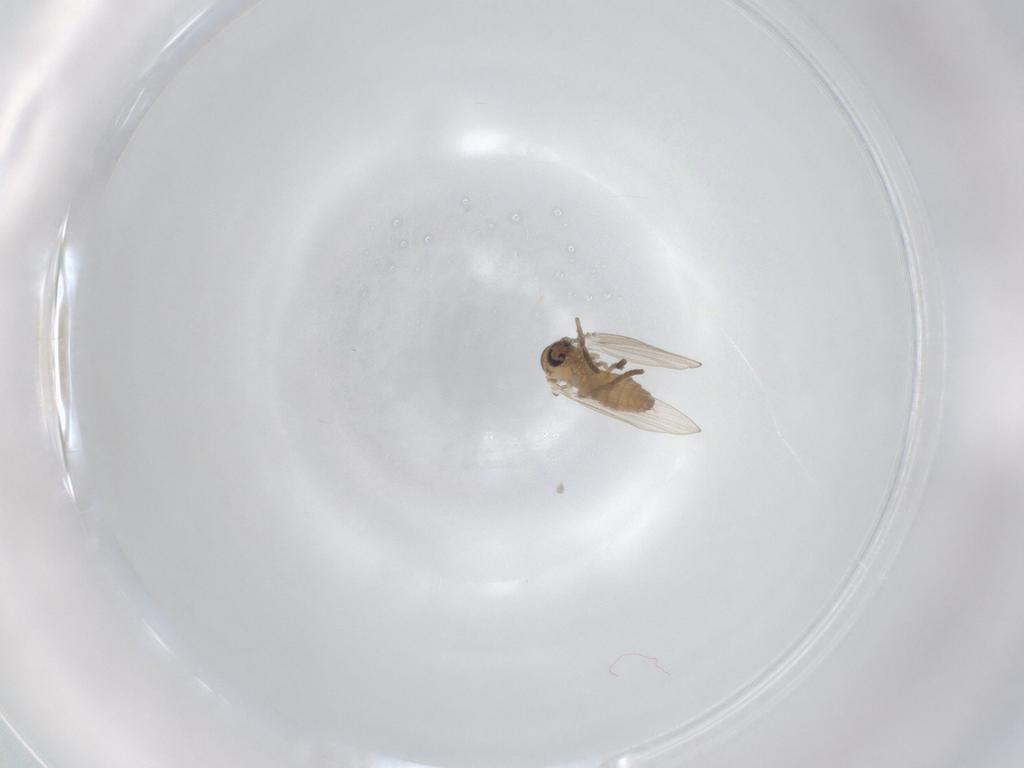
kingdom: Animalia
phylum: Arthropoda
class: Insecta
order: Diptera
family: Psychodidae
